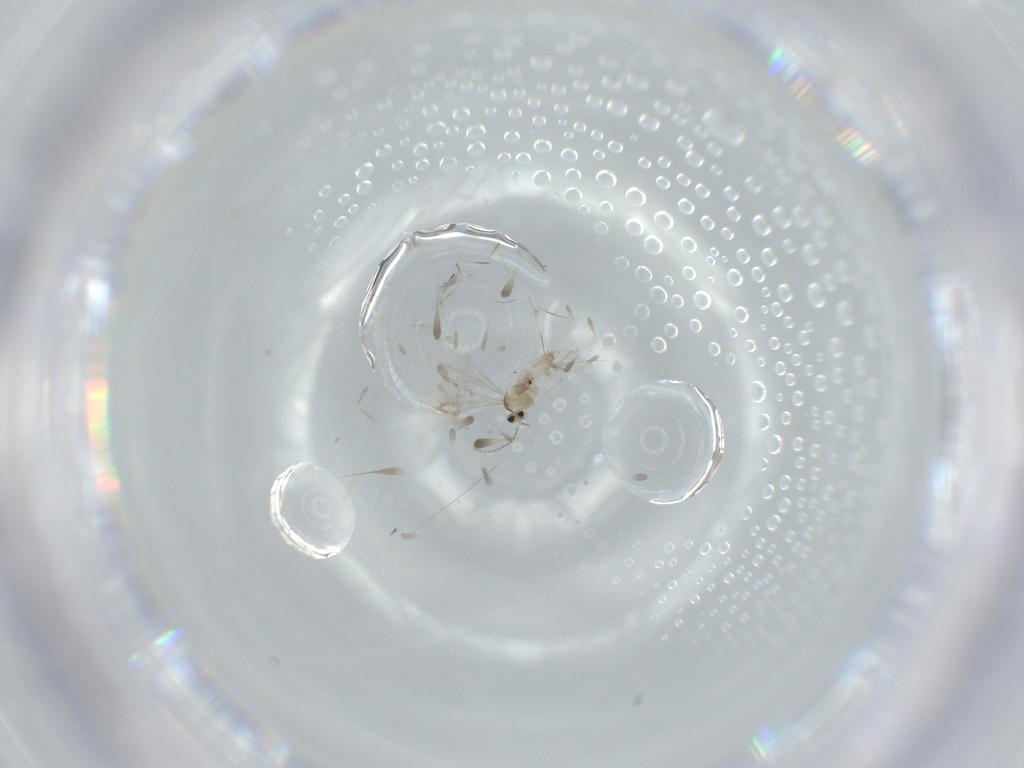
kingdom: Animalia
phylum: Arthropoda
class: Insecta
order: Diptera
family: Cecidomyiidae
